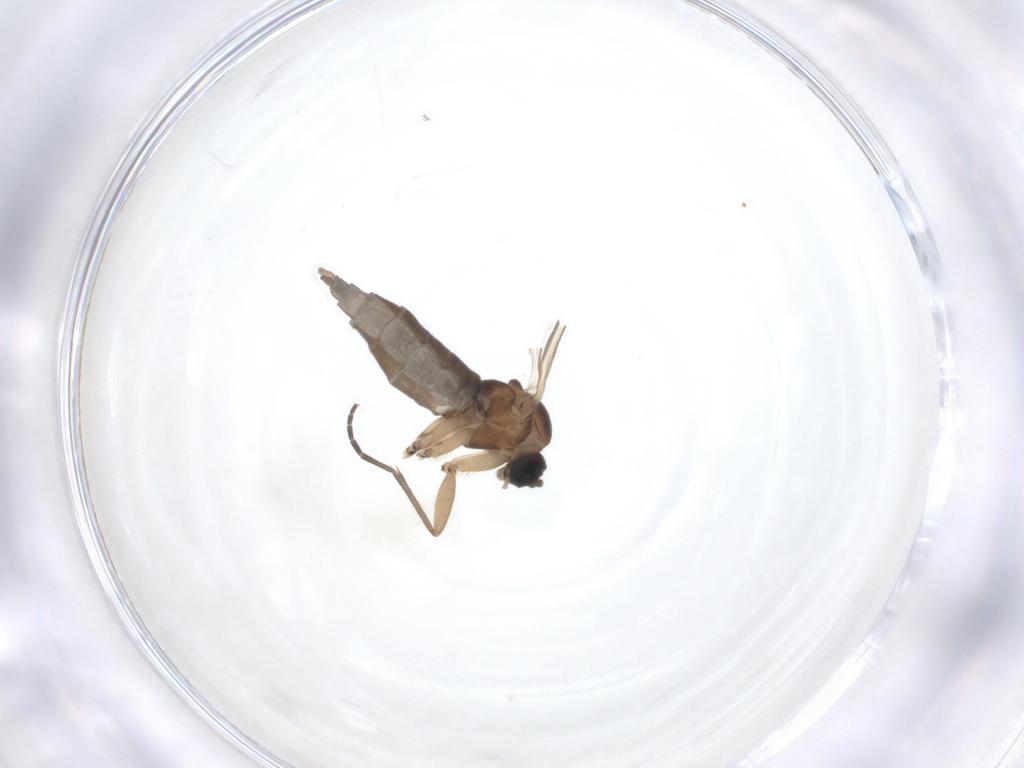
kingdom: Animalia
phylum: Arthropoda
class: Insecta
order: Diptera
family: Sciaridae
